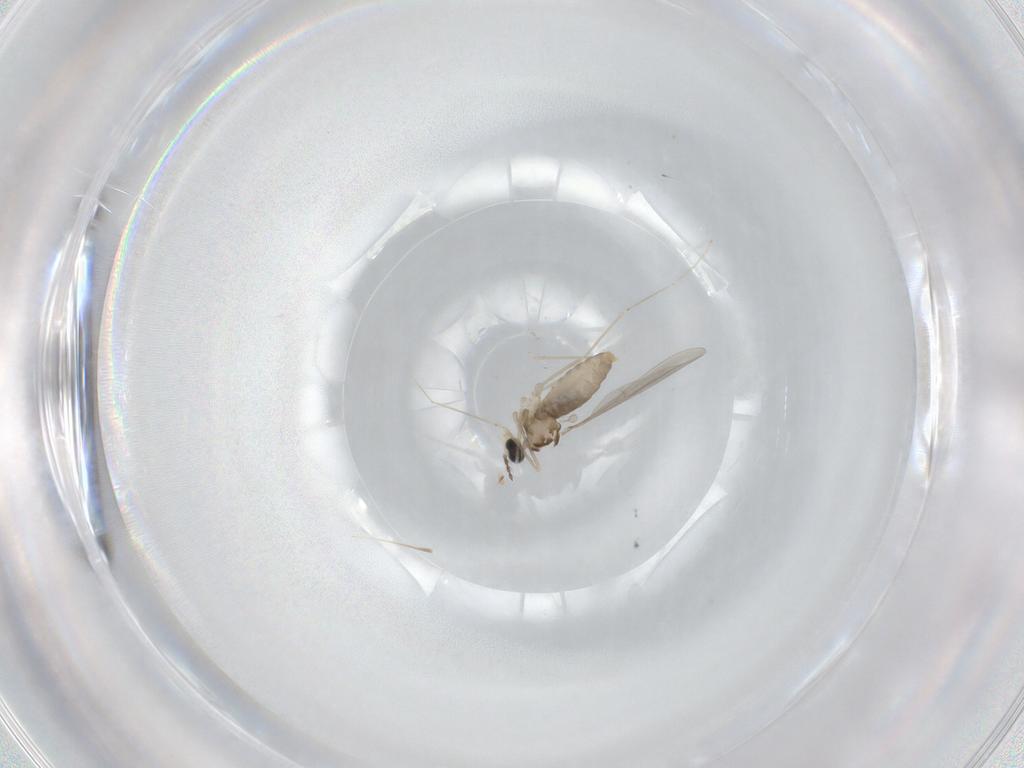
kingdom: Animalia
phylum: Arthropoda
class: Insecta
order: Diptera
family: Cecidomyiidae
